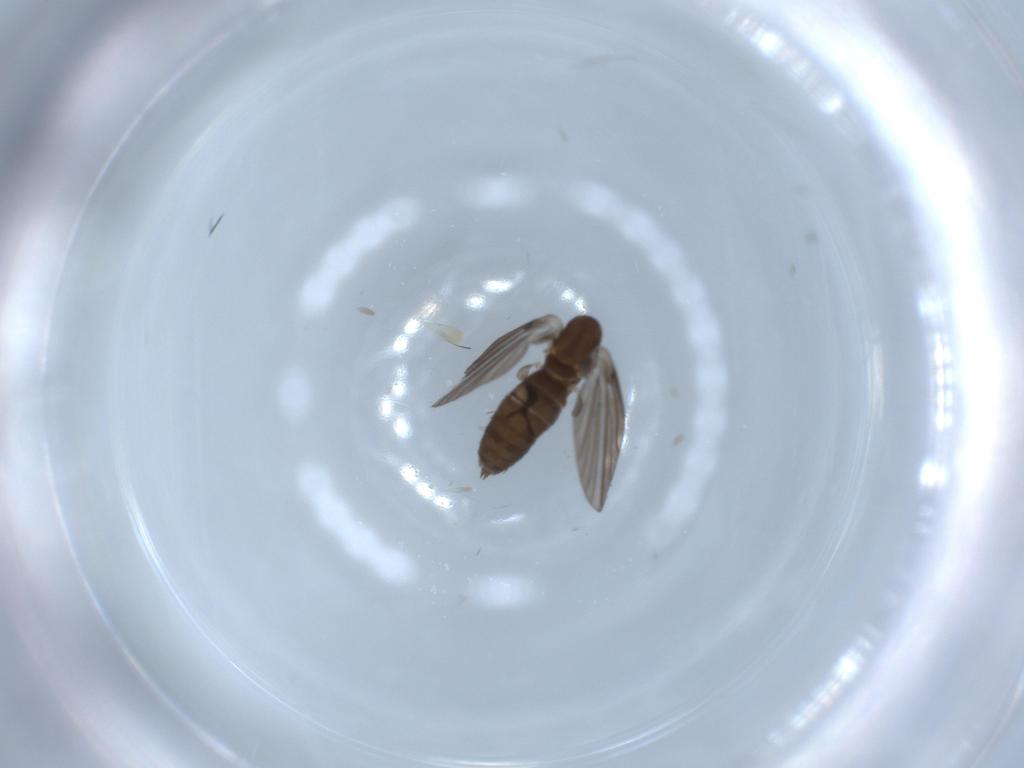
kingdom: Animalia
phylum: Arthropoda
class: Insecta
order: Diptera
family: Psychodidae
